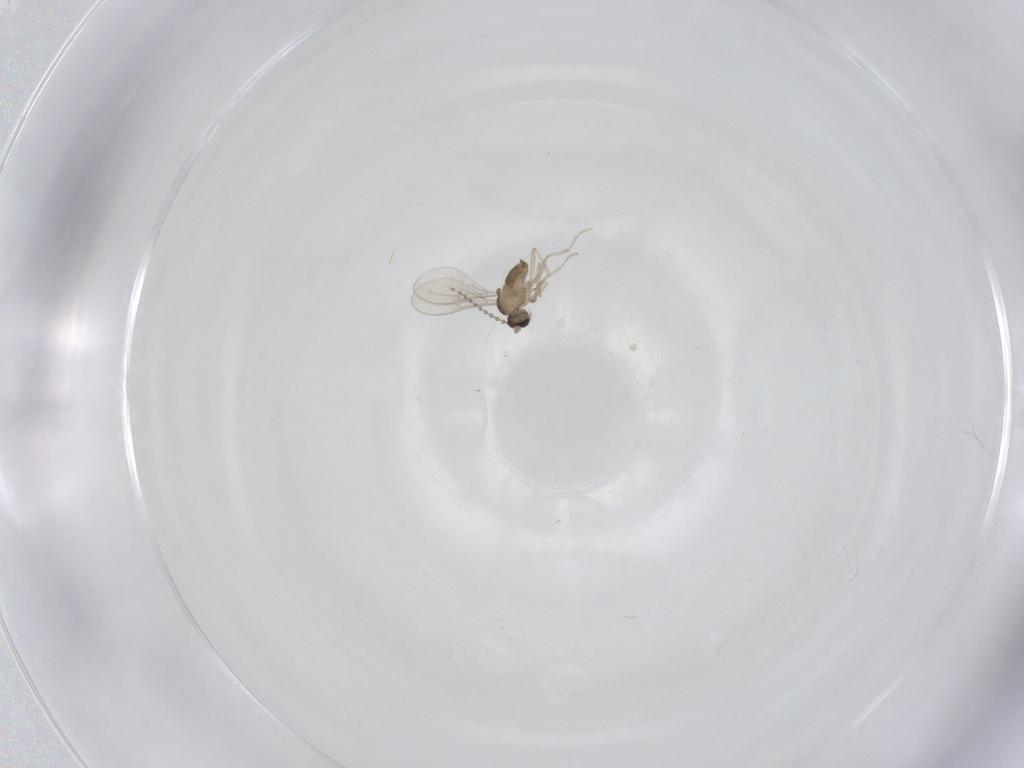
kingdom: Animalia
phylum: Arthropoda
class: Insecta
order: Diptera
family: Cecidomyiidae
